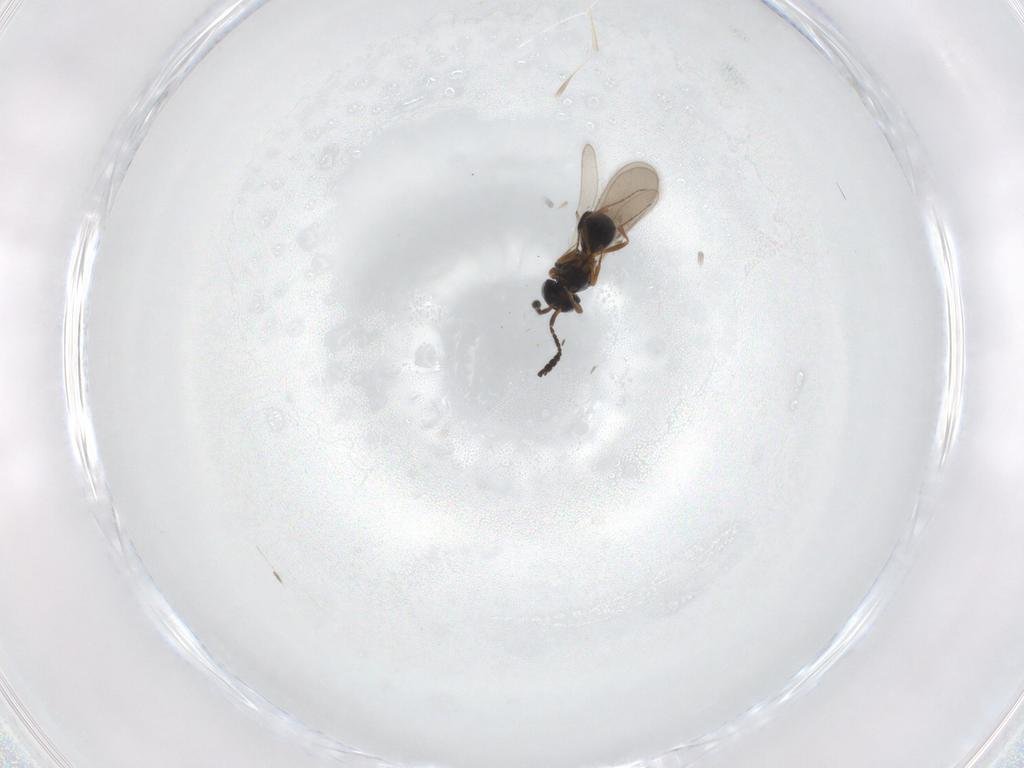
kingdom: Animalia
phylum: Arthropoda
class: Insecta
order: Hymenoptera
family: Scelionidae
